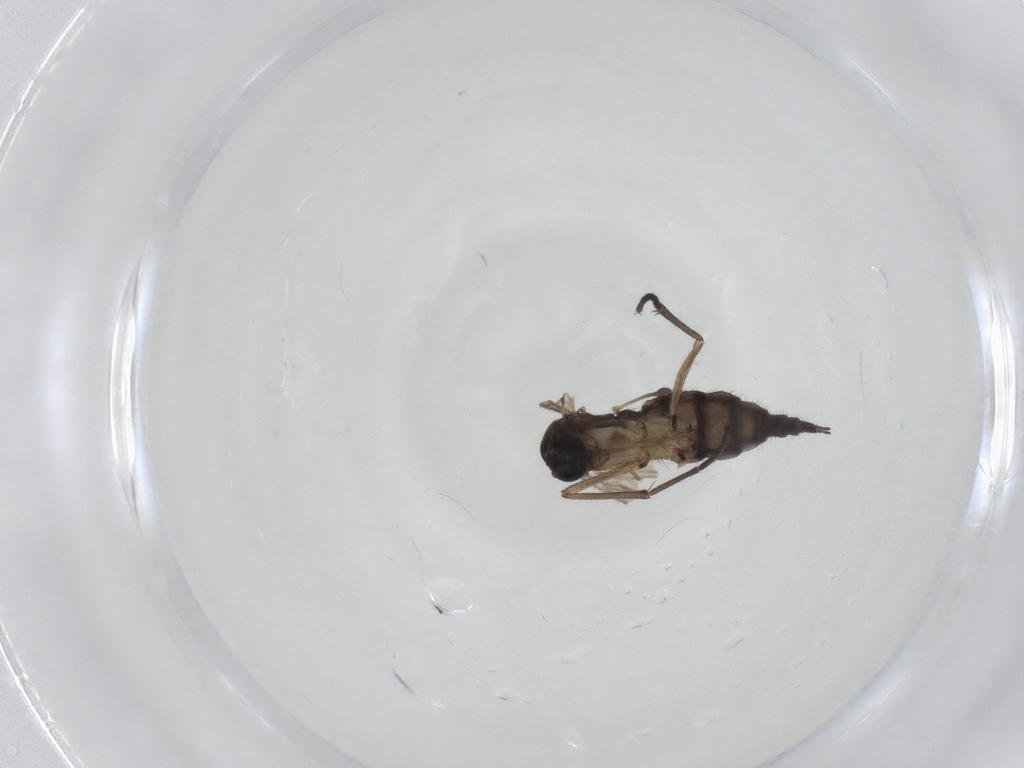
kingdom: Animalia
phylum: Arthropoda
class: Insecta
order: Diptera
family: Sciaridae
